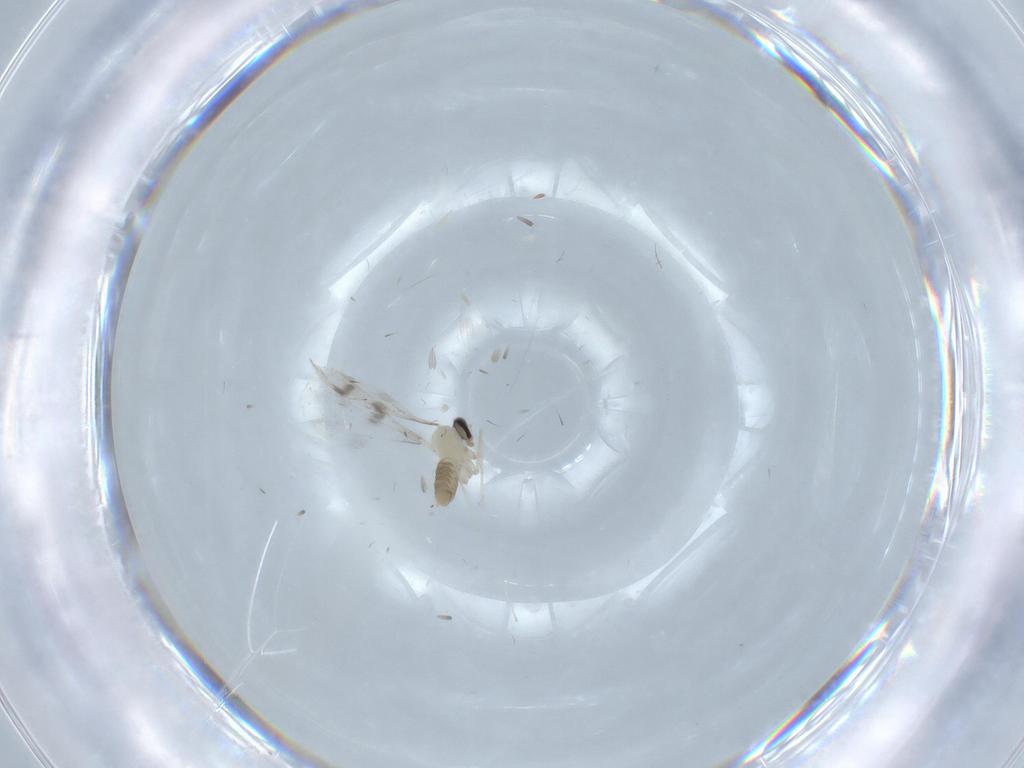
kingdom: Animalia
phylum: Arthropoda
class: Insecta
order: Diptera
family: Cecidomyiidae
